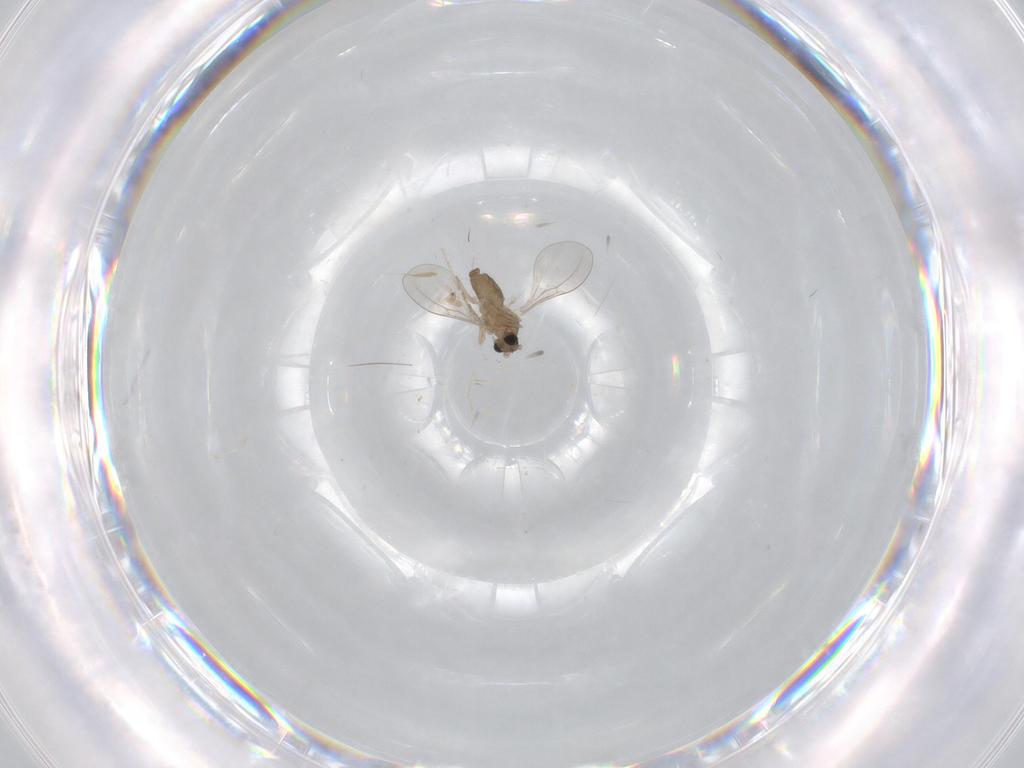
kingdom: Animalia
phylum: Arthropoda
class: Insecta
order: Diptera
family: Cecidomyiidae
